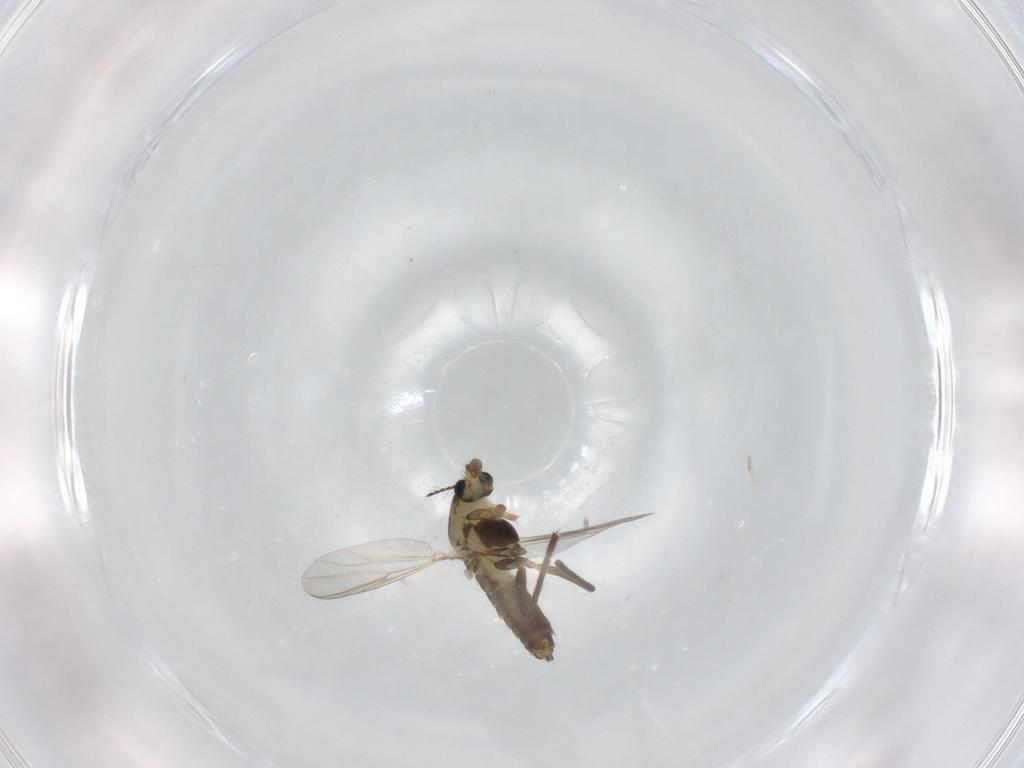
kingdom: Animalia
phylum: Arthropoda
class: Insecta
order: Diptera
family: Chironomidae
